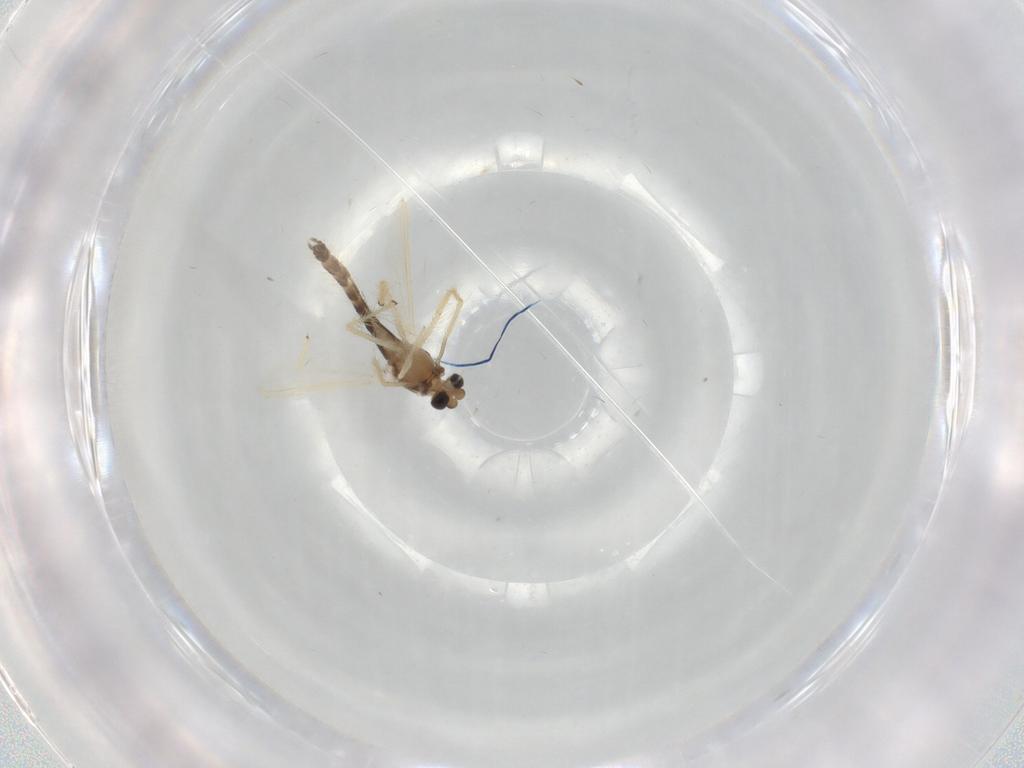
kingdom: Animalia
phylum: Arthropoda
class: Insecta
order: Diptera
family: Chironomidae
